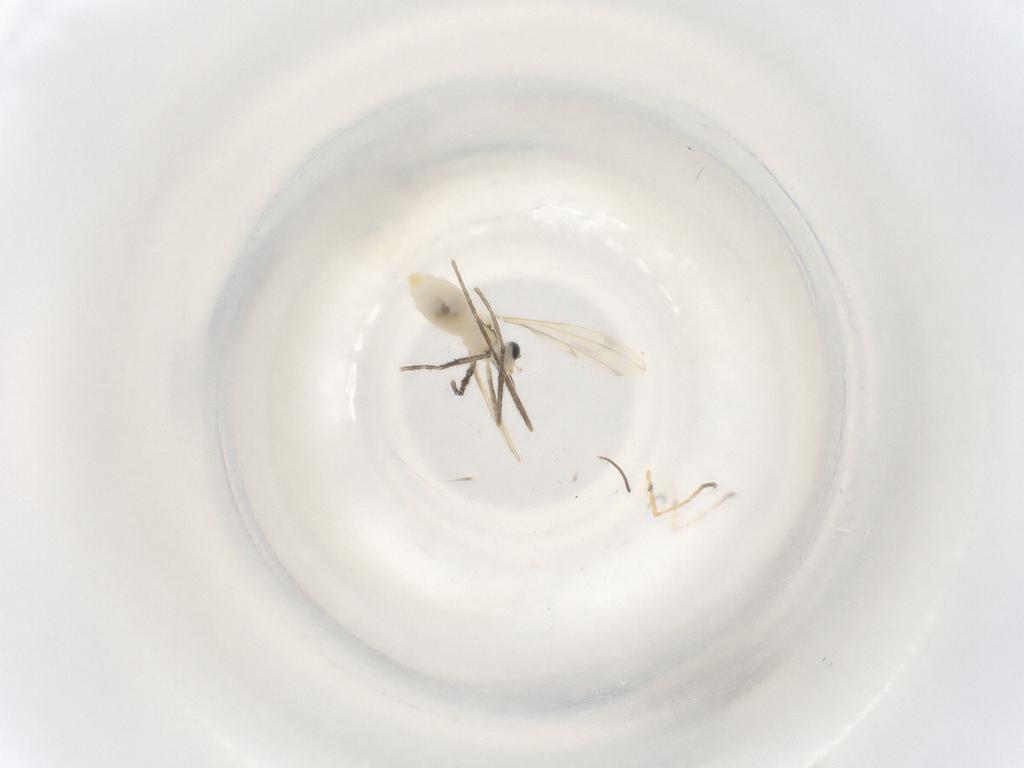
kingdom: Animalia
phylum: Arthropoda
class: Insecta
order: Diptera
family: Cecidomyiidae
